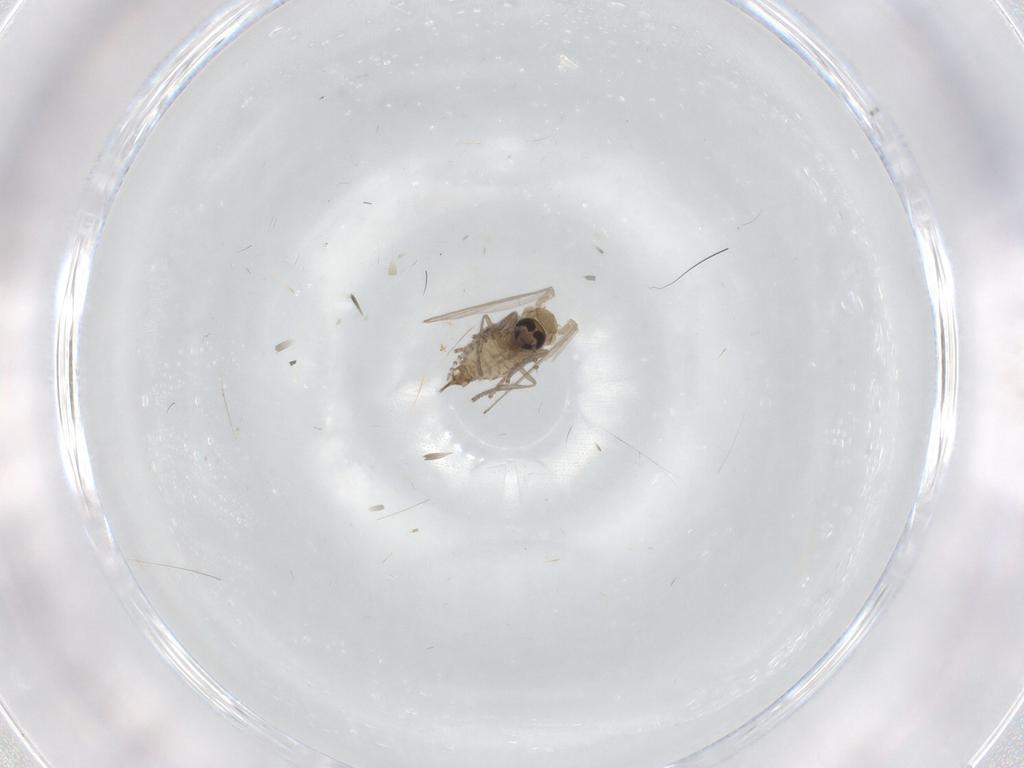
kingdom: Animalia
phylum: Arthropoda
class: Insecta
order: Diptera
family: Psychodidae
